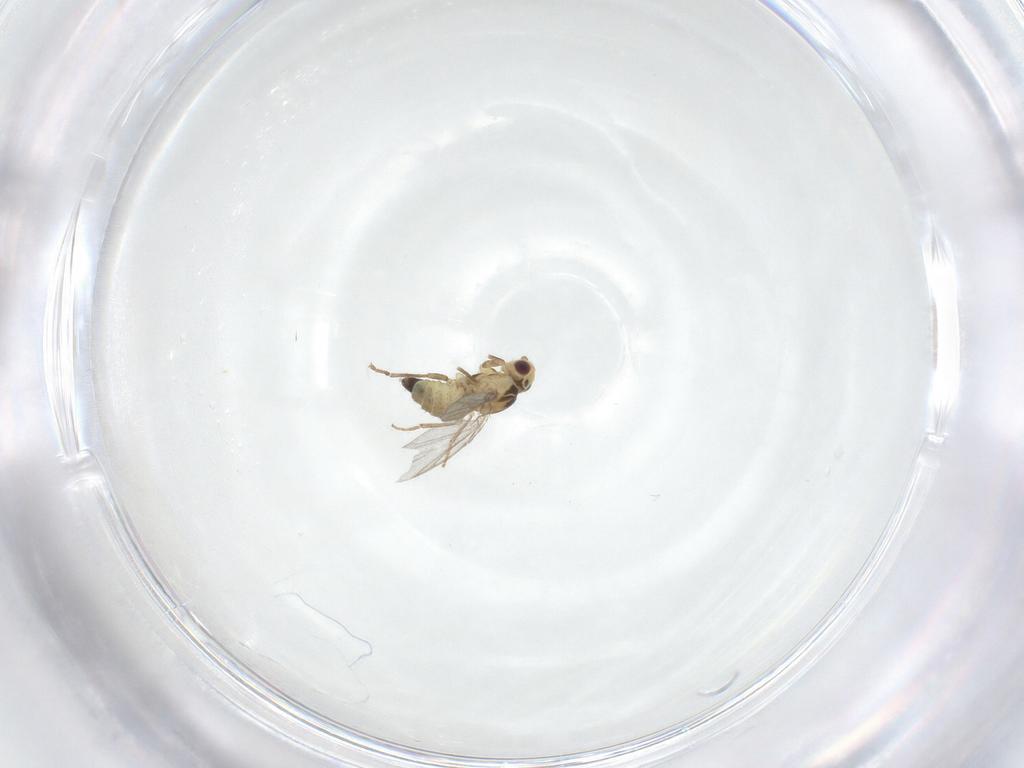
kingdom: Animalia
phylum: Arthropoda
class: Insecta
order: Diptera
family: Agromyzidae
